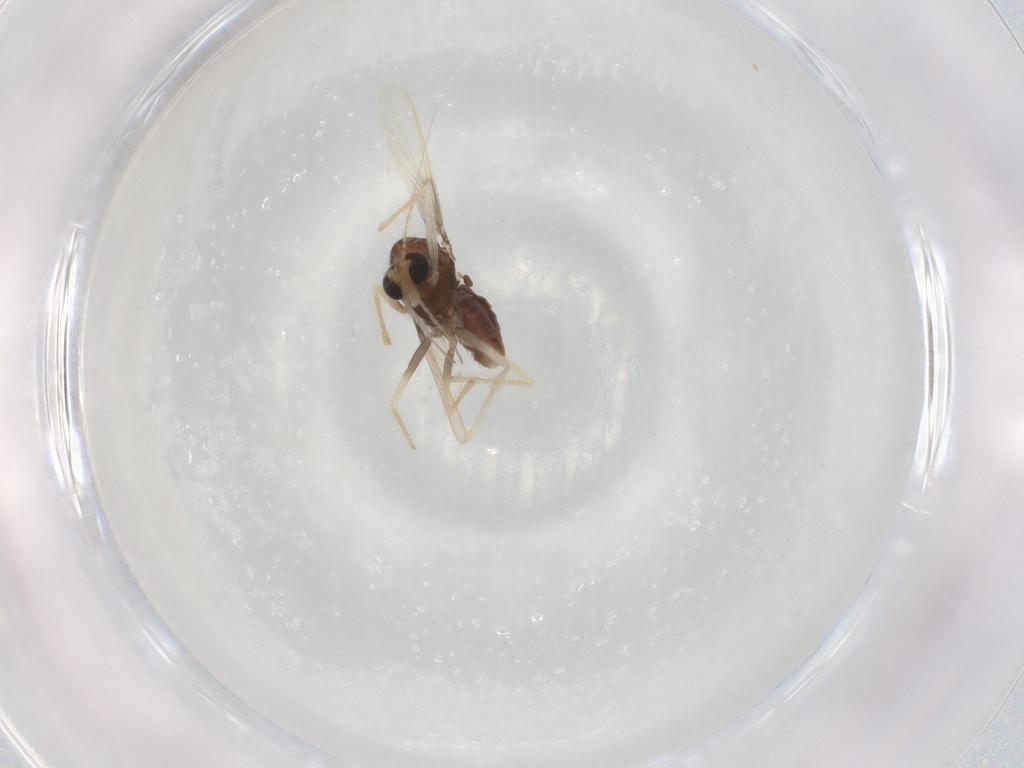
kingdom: Animalia
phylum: Arthropoda
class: Insecta
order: Diptera
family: Chironomidae
